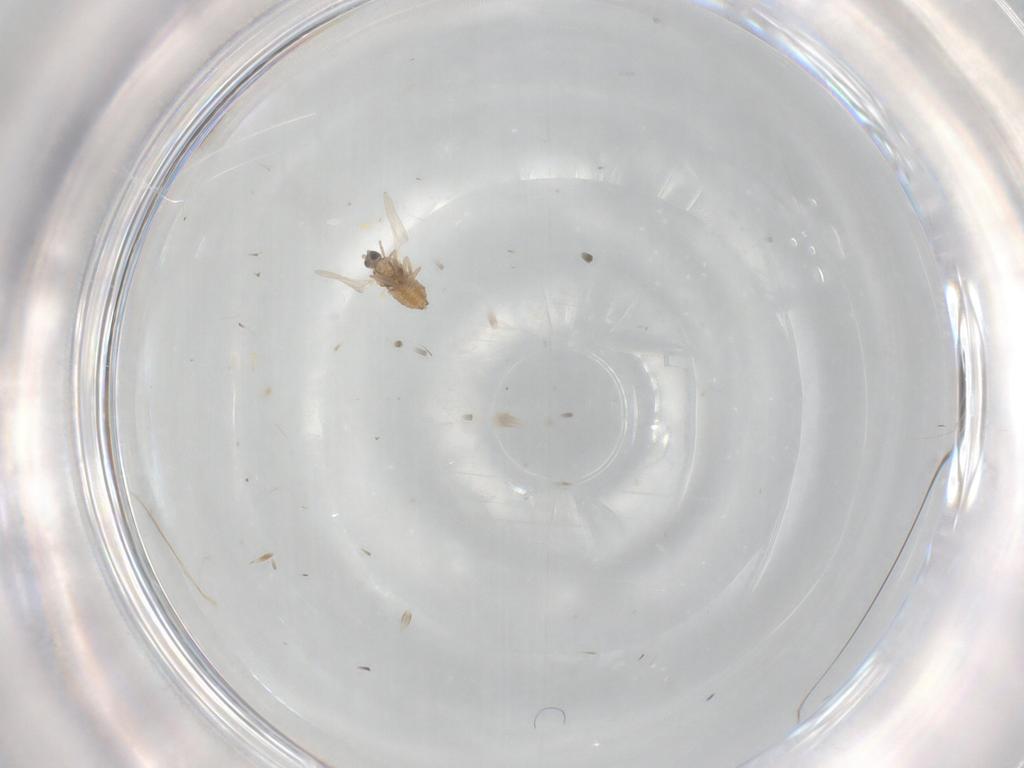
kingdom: Animalia
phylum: Arthropoda
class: Insecta
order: Diptera
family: Cecidomyiidae
